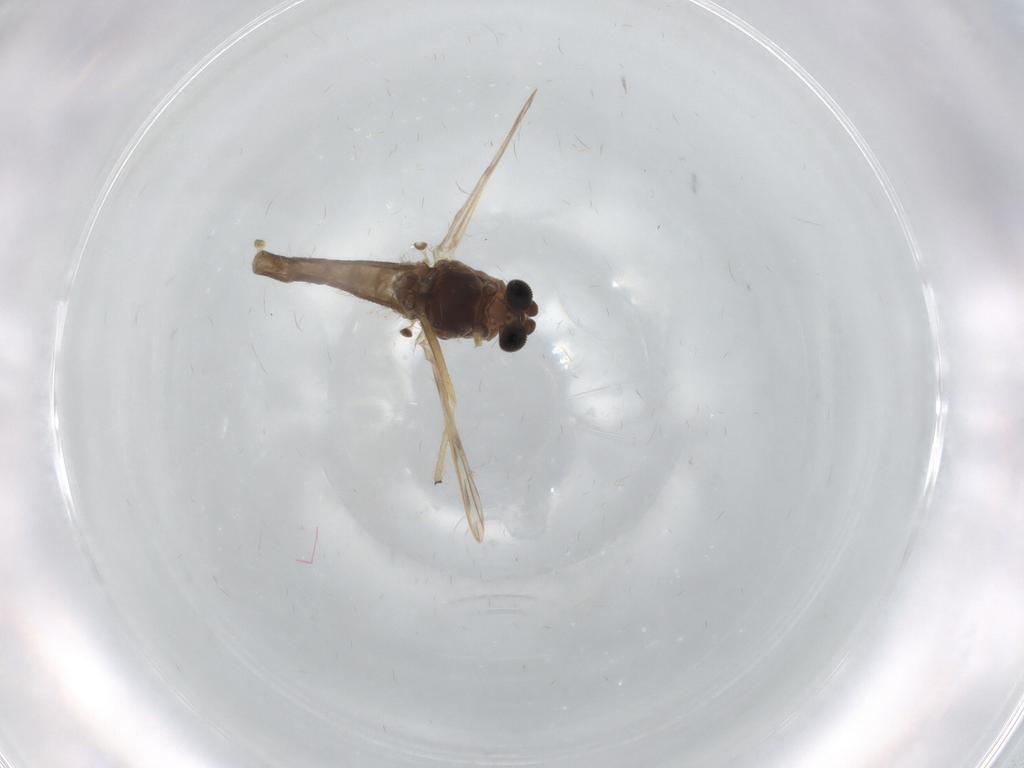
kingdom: Animalia
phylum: Arthropoda
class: Insecta
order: Diptera
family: Chironomidae
